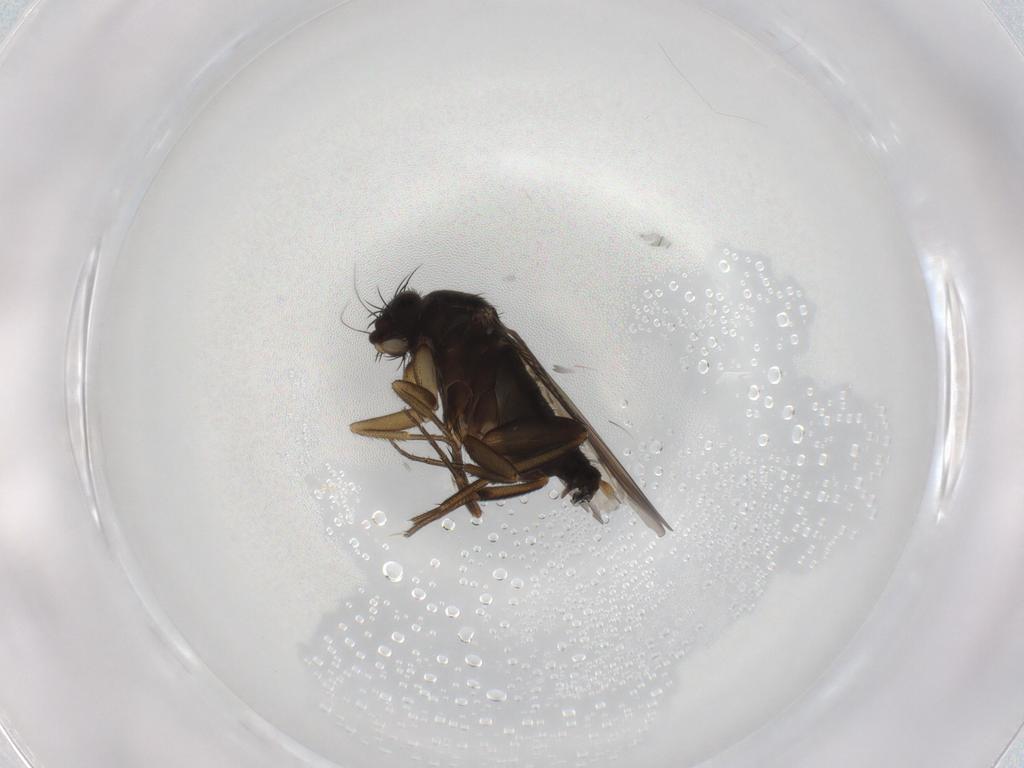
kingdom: Animalia
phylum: Arthropoda
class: Insecta
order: Diptera
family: Phoridae
